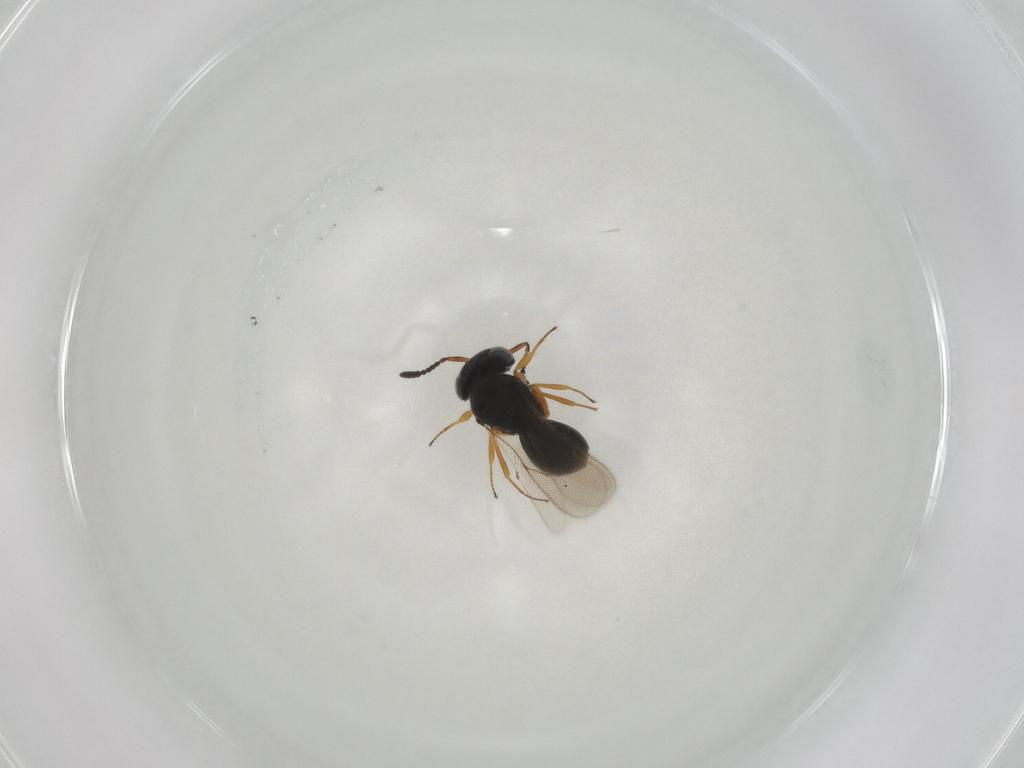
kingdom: Animalia
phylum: Arthropoda
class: Insecta
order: Hymenoptera
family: Scelionidae
